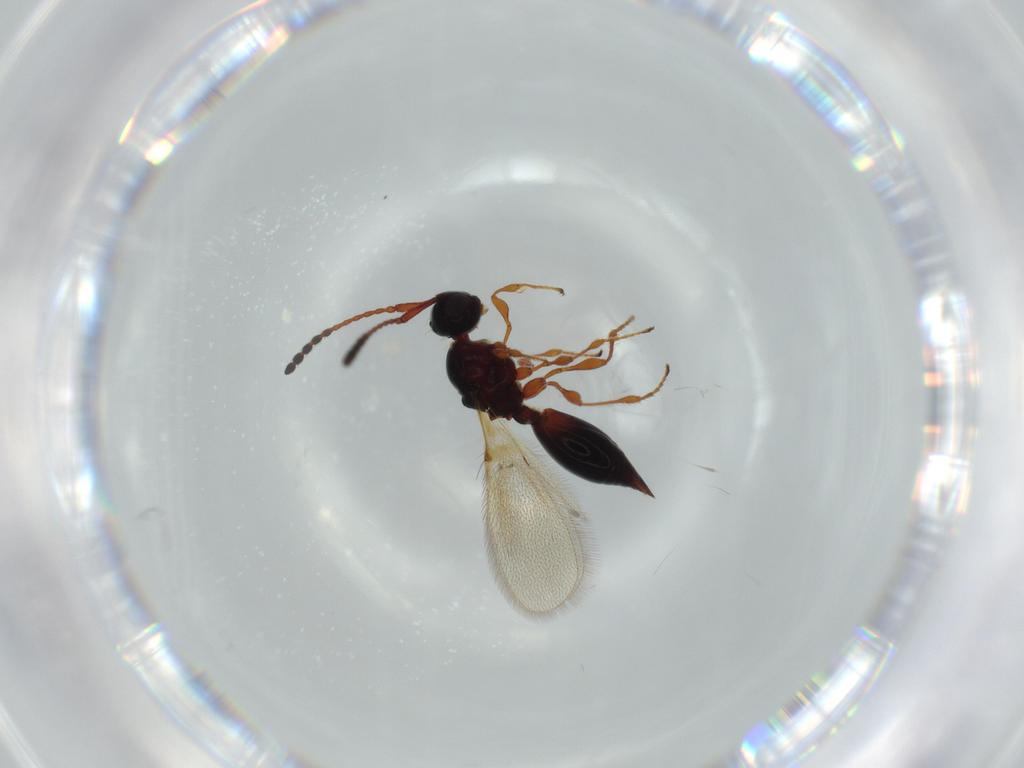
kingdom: Animalia
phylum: Arthropoda
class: Insecta
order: Hymenoptera
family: Diapriidae
